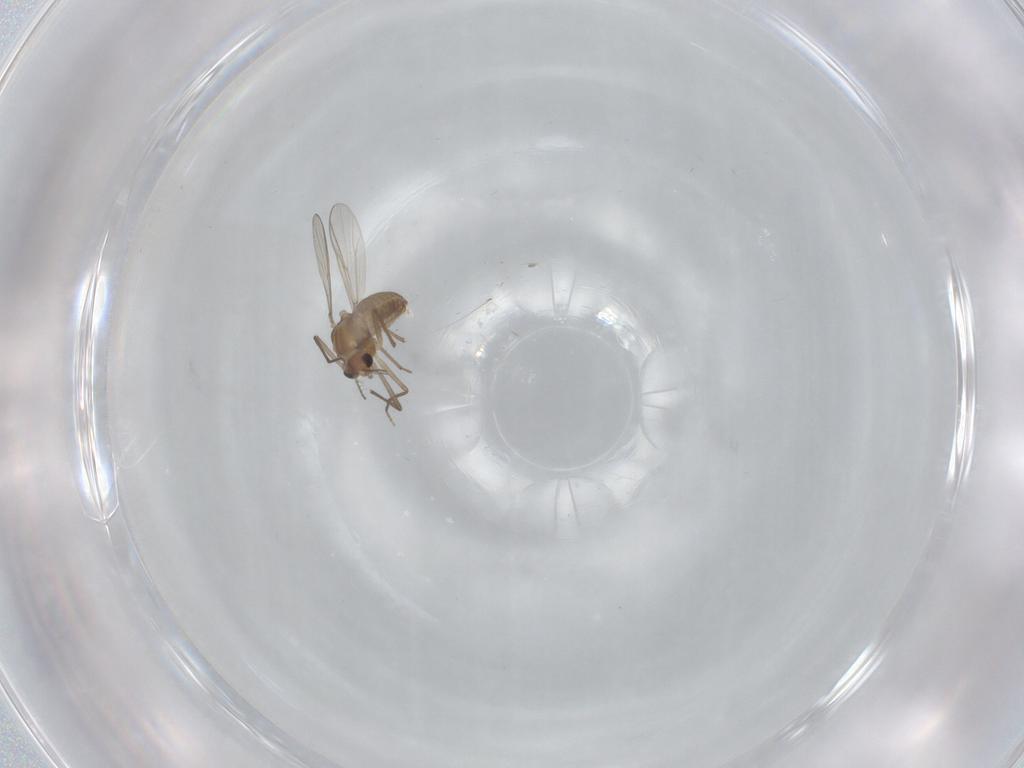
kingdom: Animalia
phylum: Arthropoda
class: Insecta
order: Diptera
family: Chironomidae
